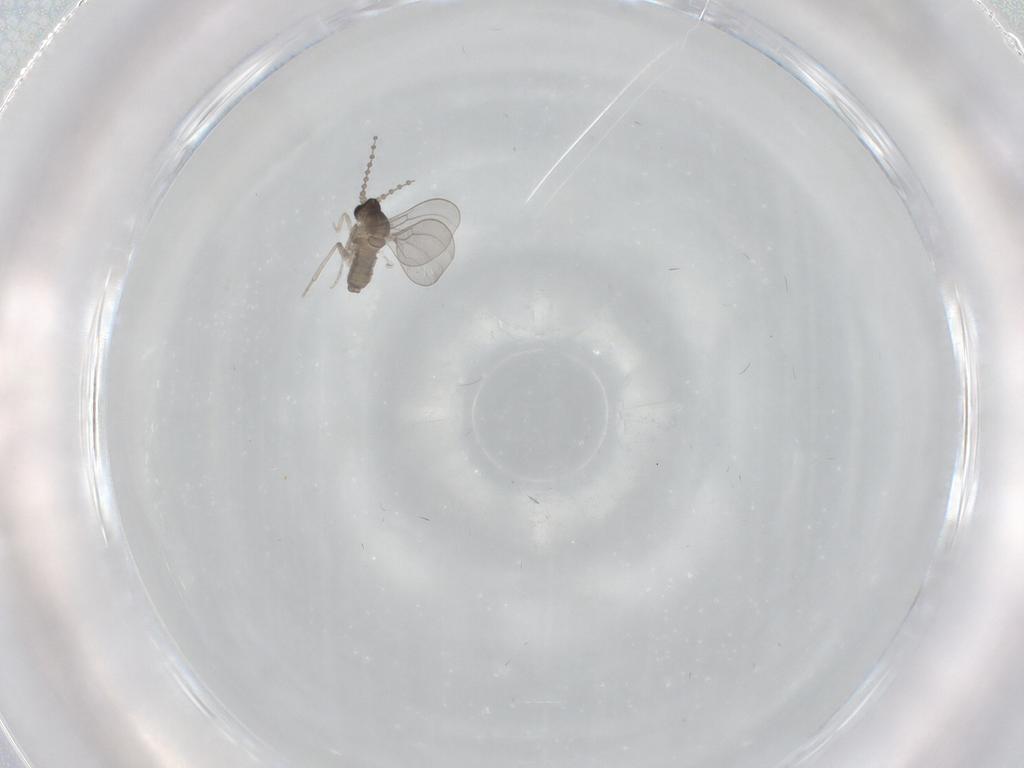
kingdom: Animalia
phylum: Arthropoda
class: Insecta
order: Diptera
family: Cecidomyiidae
